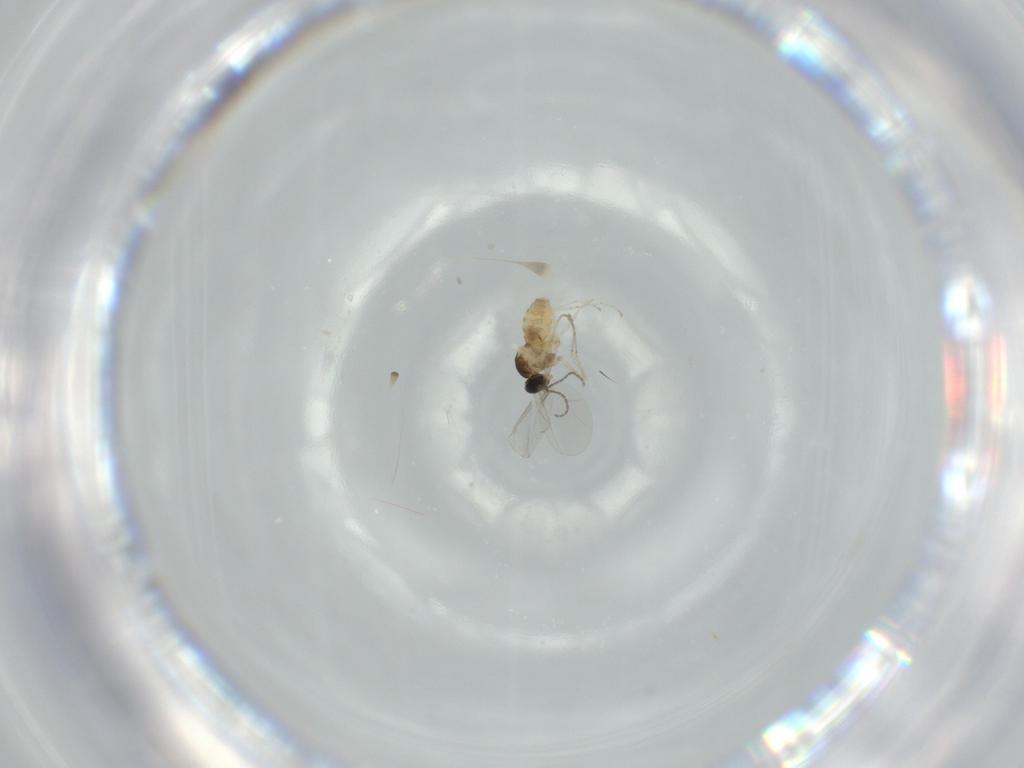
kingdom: Animalia
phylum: Arthropoda
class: Insecta
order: Diptera
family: Cecidomyiidae
